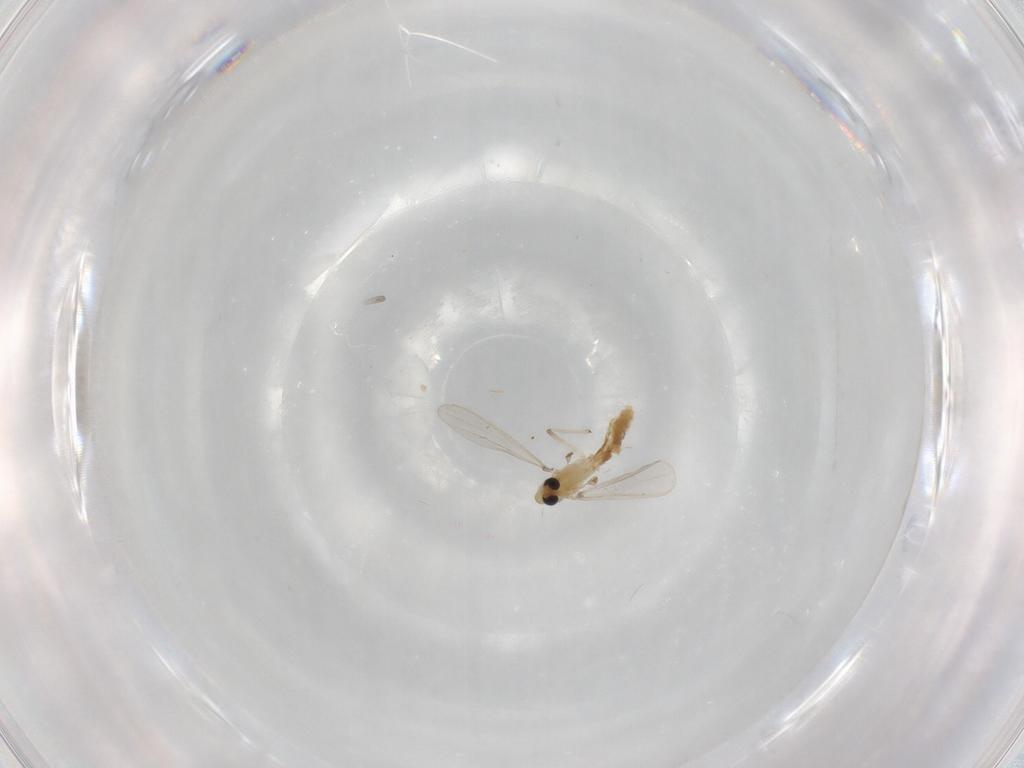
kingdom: Animalia
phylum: Arthropoda
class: Insecta
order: Diptera
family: Chironomidae
